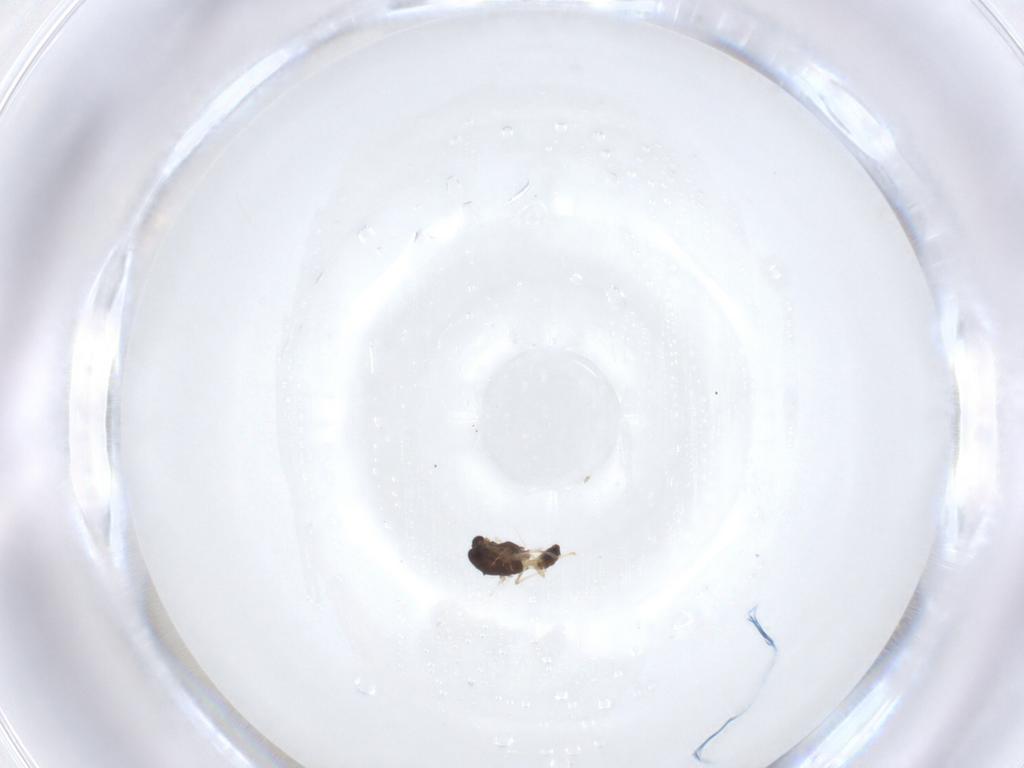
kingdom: Animalia
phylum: Arthropoda
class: Insecta
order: Diptera
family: Chironomidae
